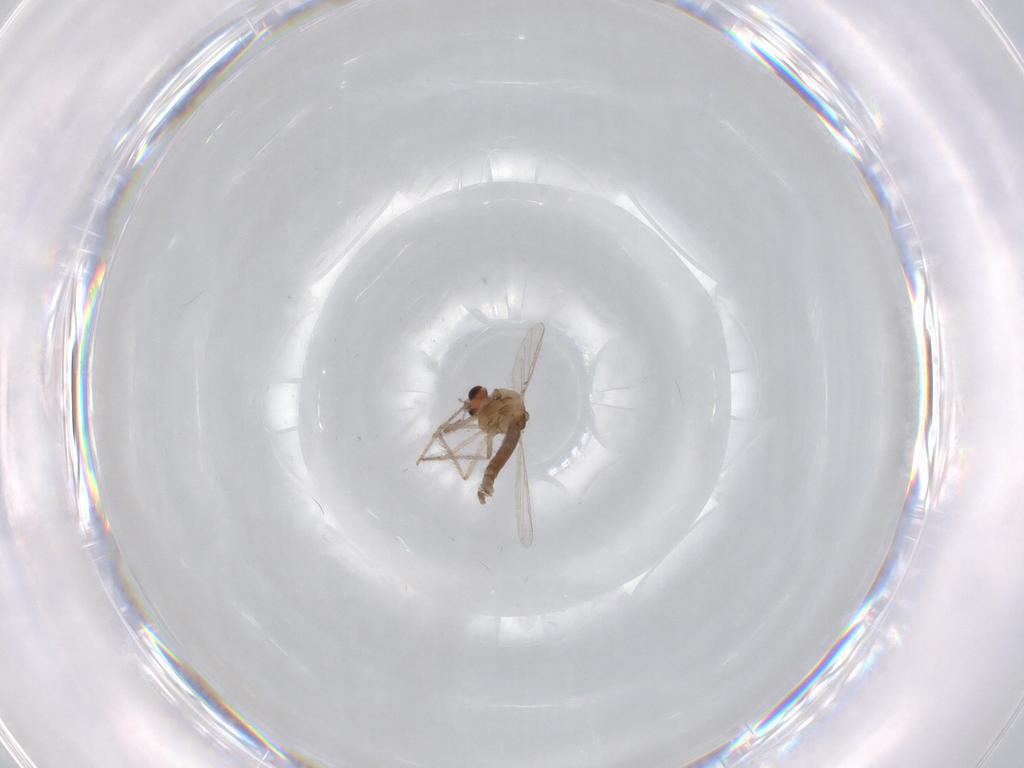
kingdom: Animalia
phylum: Arthropoda
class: Insecta
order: Diptera
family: Chironomidae
